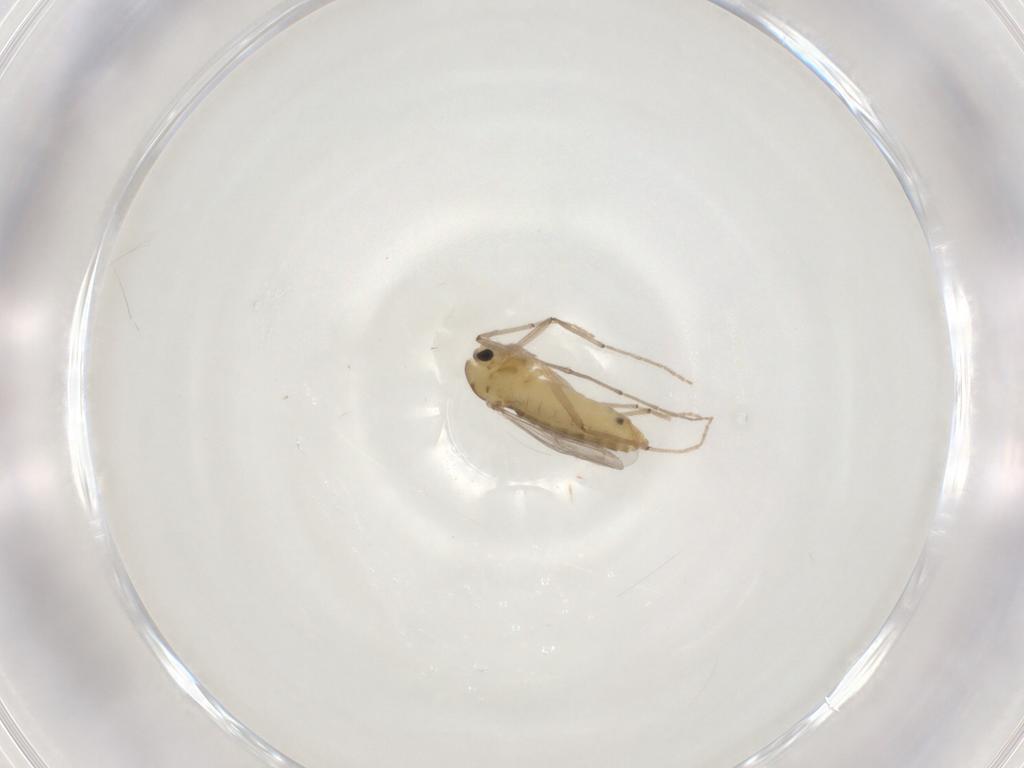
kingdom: Animalia
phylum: Arthropoda
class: Insecta
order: Diptera
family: Chironomidae
